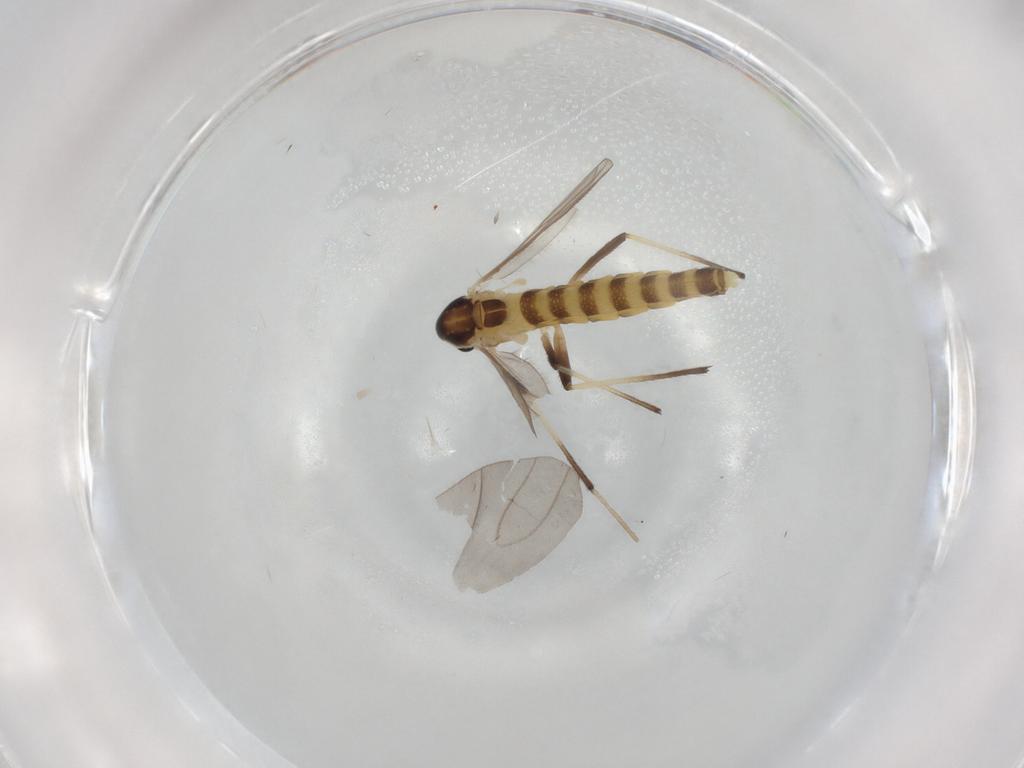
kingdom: Animalia
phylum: Arthropoda
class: Insecta
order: Diptera
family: Chironomidae
